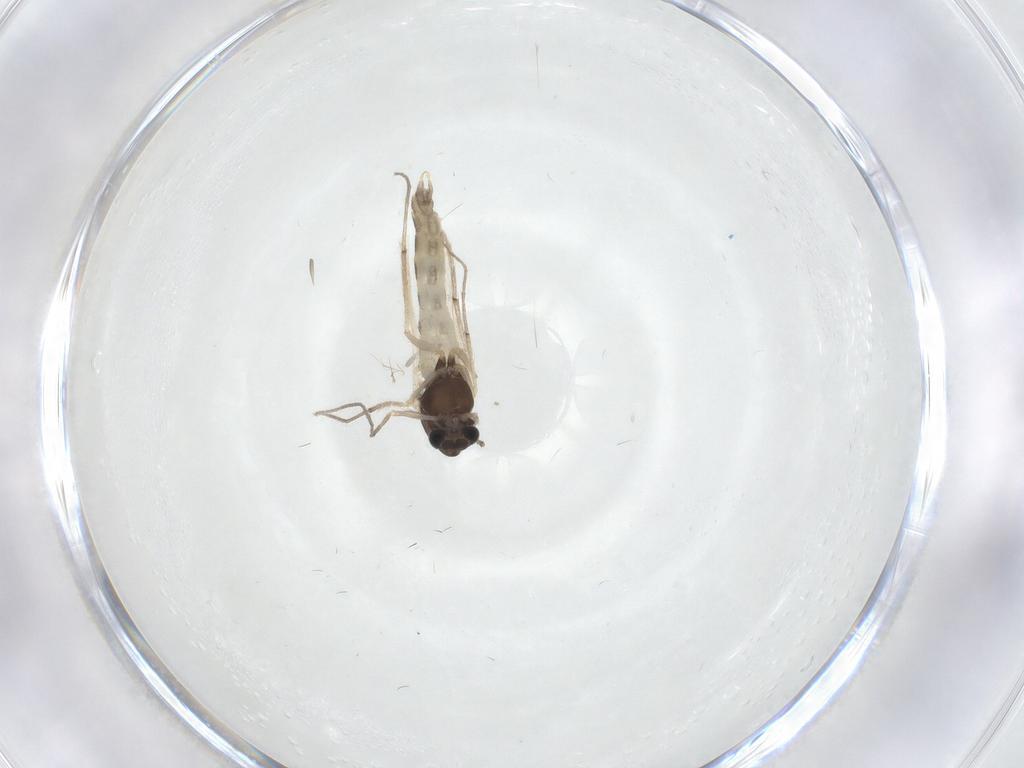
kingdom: Animalia
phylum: Arthropoda
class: Insecta
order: Diptera
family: Chironomidae
